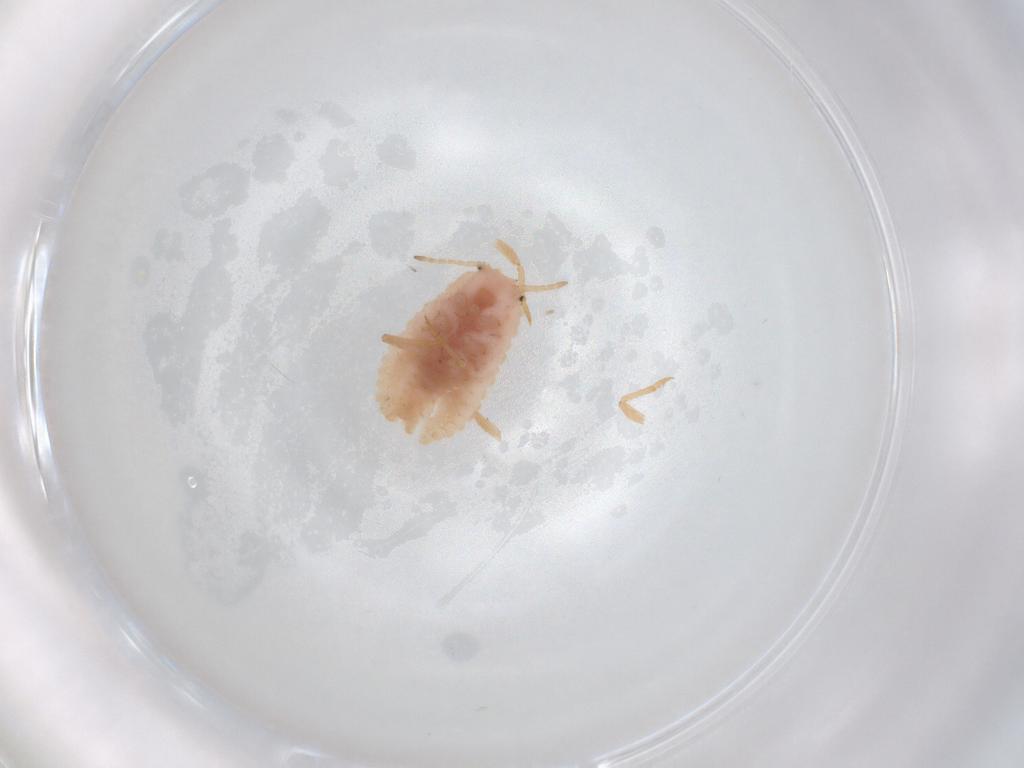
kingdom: Animalia
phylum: Arthropoda
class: Insecta
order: Hemiptera
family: Coccoidea_incertae_sedis
